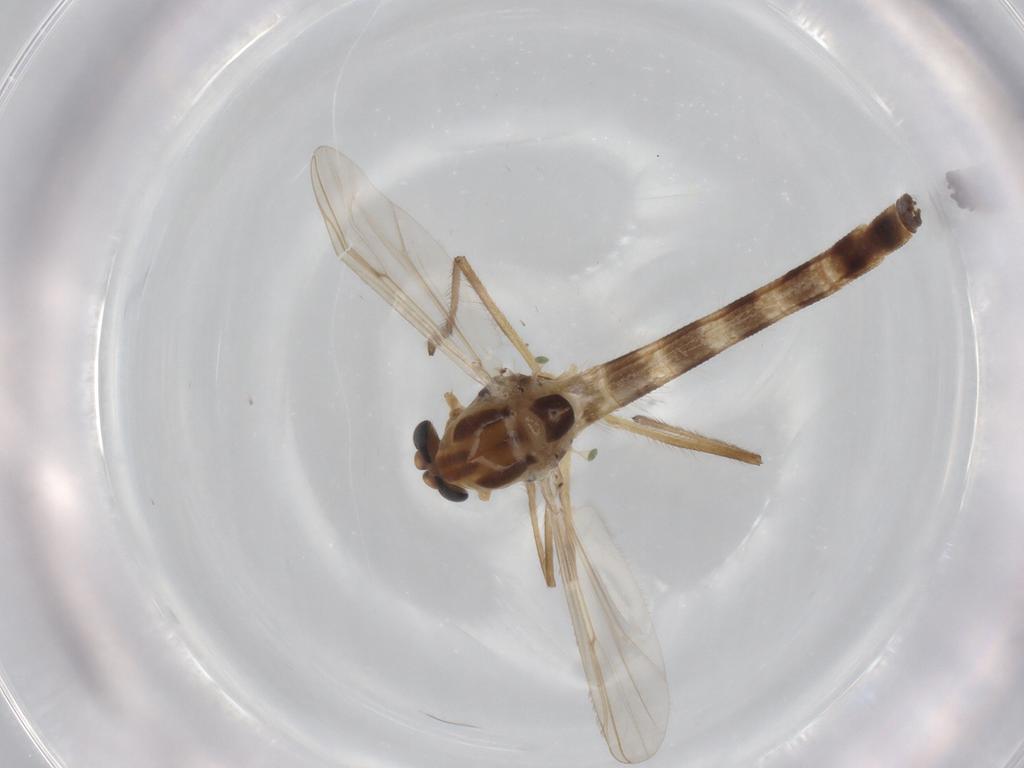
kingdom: Animalia
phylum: Arthropoda
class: Insecta
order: Diptera
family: Chironomidae
